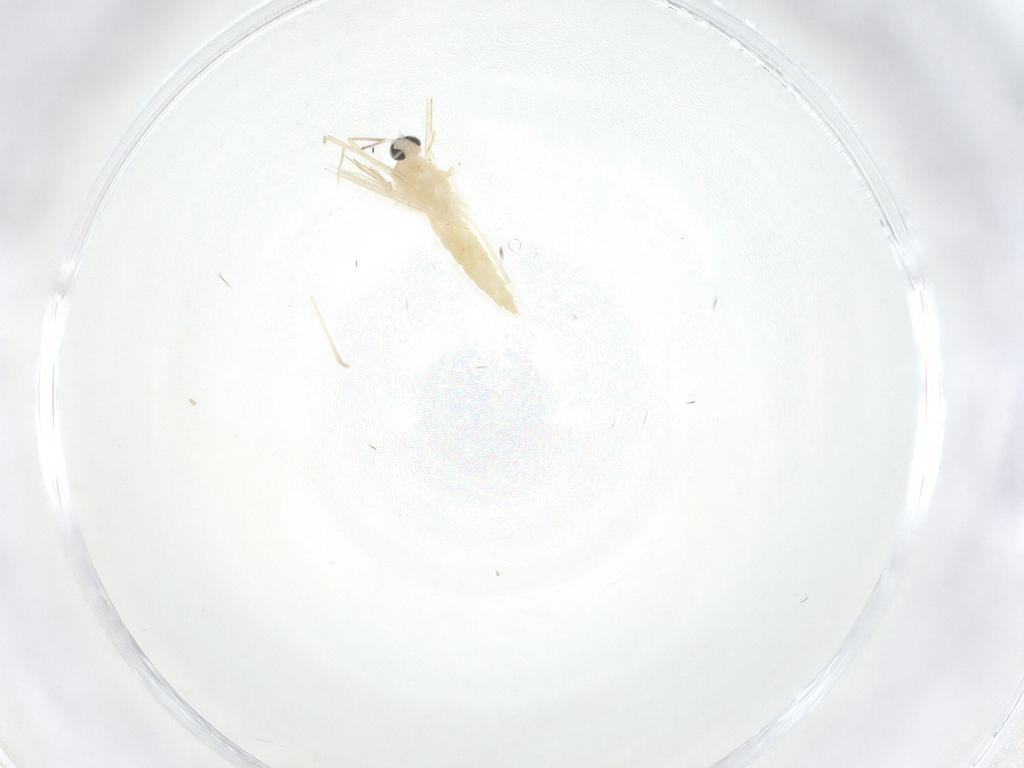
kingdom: Animalia
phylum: Arthropoda
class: Insecta
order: Diptera
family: Cecidomyiidae
